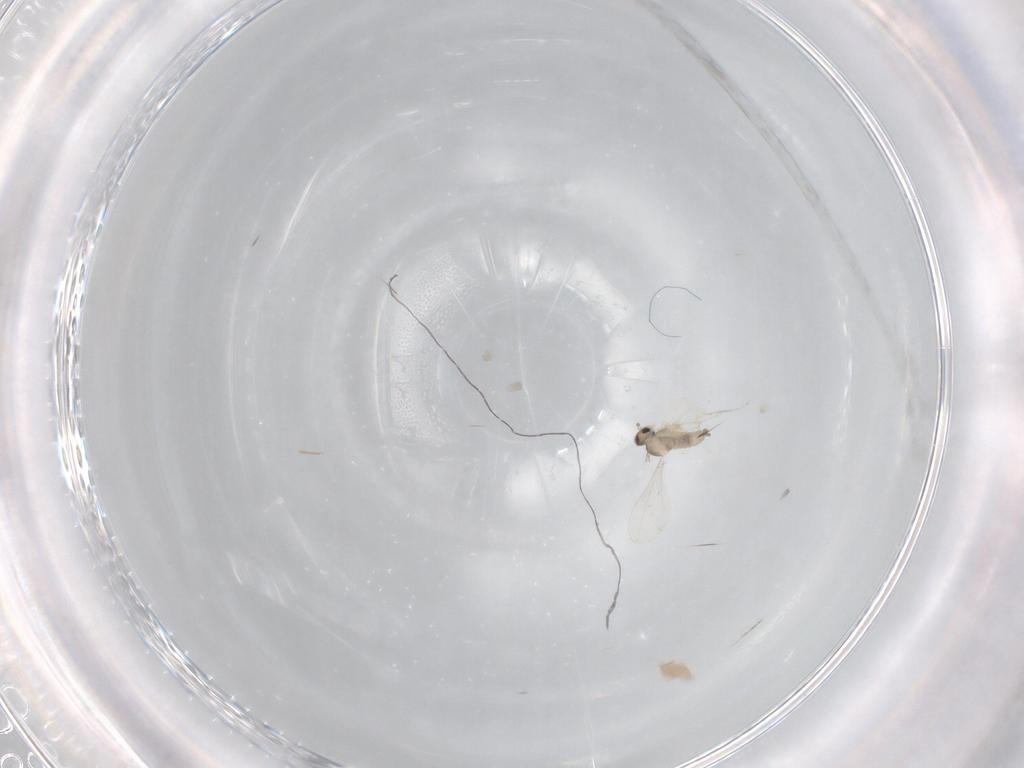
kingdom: Animalia
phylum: Arthropoda
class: Insecta
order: Diptera
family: Cecidomyiidae
